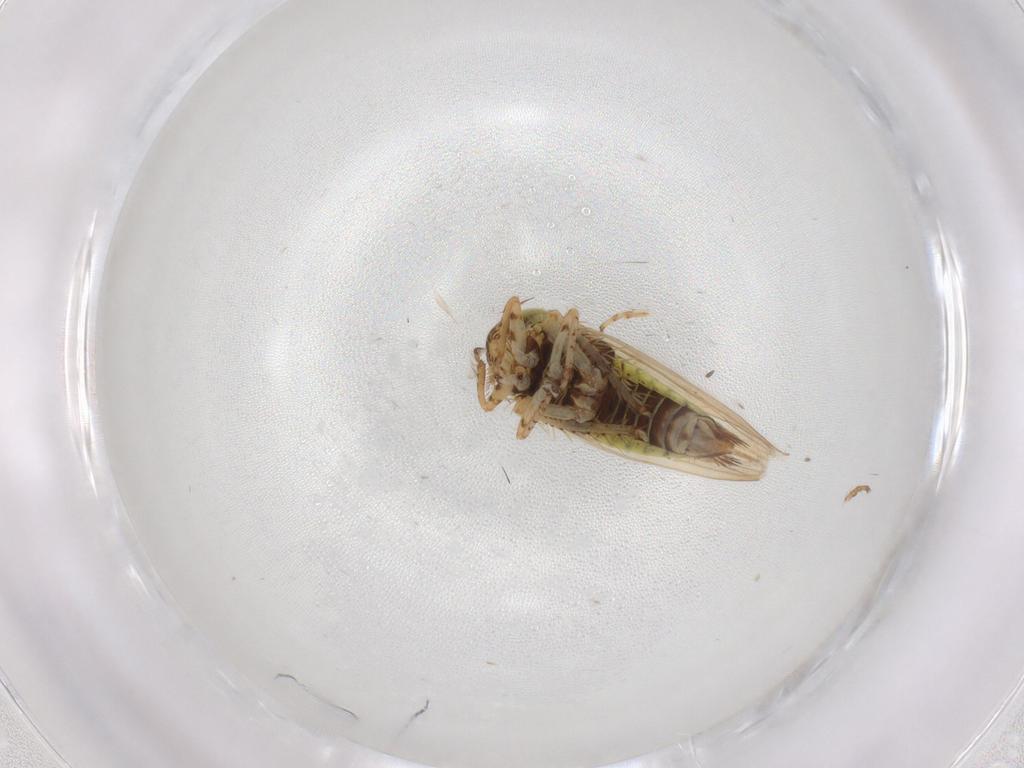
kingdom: Animalia
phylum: Arthropoda
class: Insecta
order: Hemiptera
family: Cicadellidae
